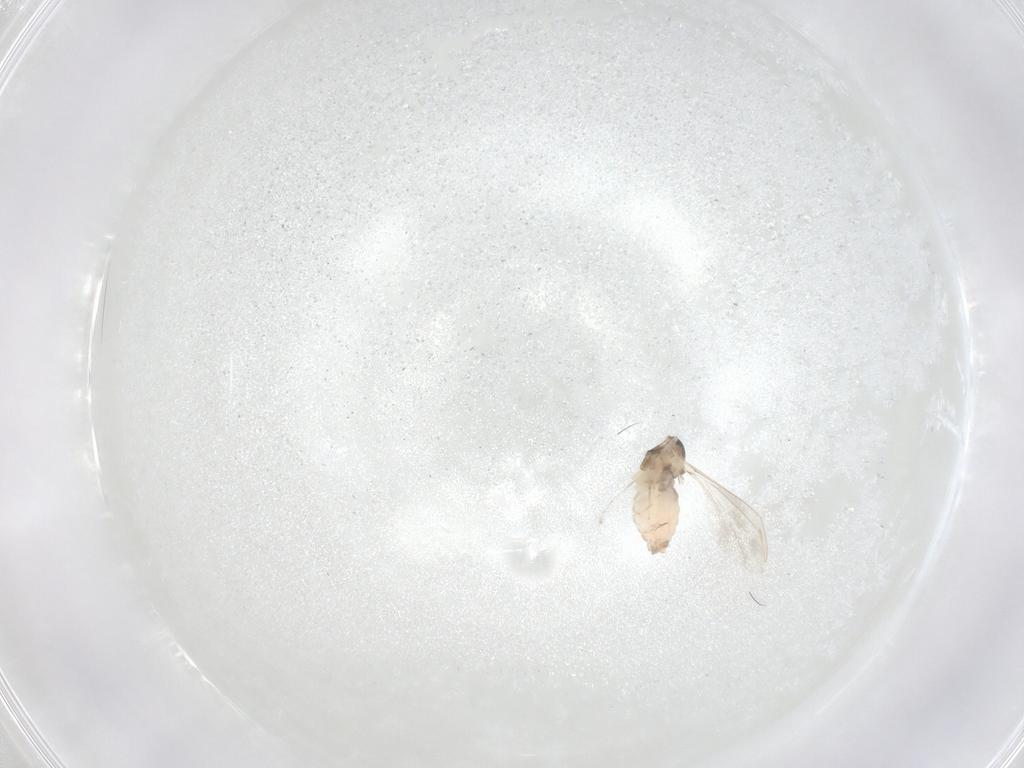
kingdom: Animalia
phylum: Arthropoda
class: Insecta
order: Diptera
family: Cecidomyiidae
